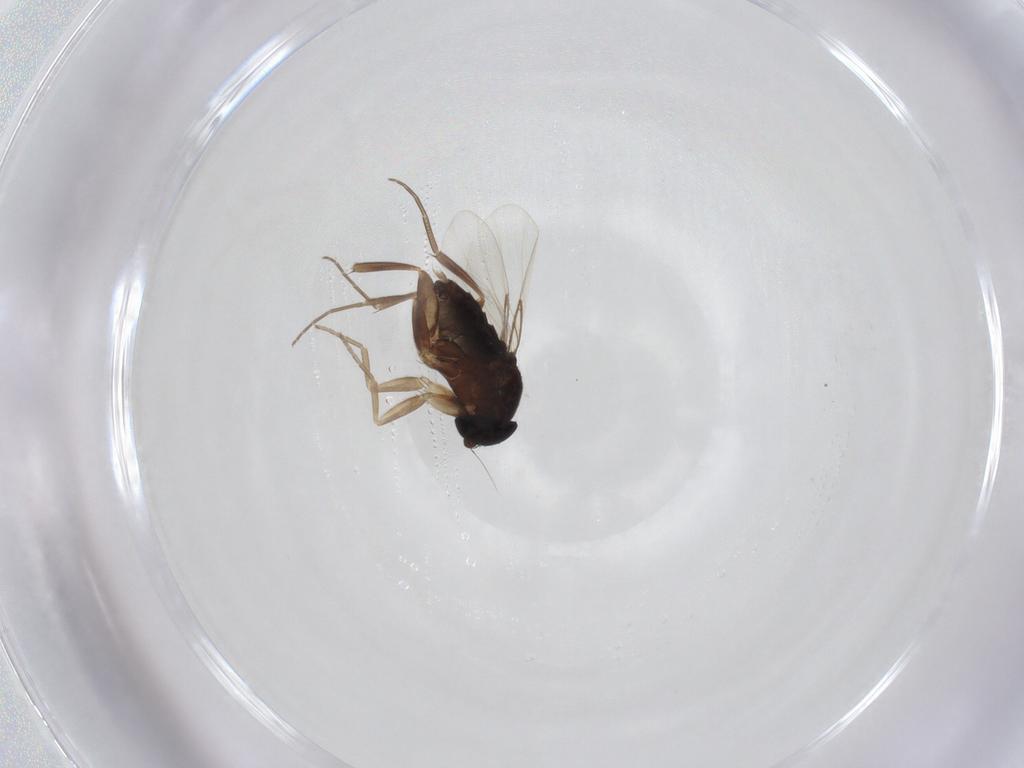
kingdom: Animalia
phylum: Arthropoda
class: Insecta
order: Diptera
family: Phoridae
